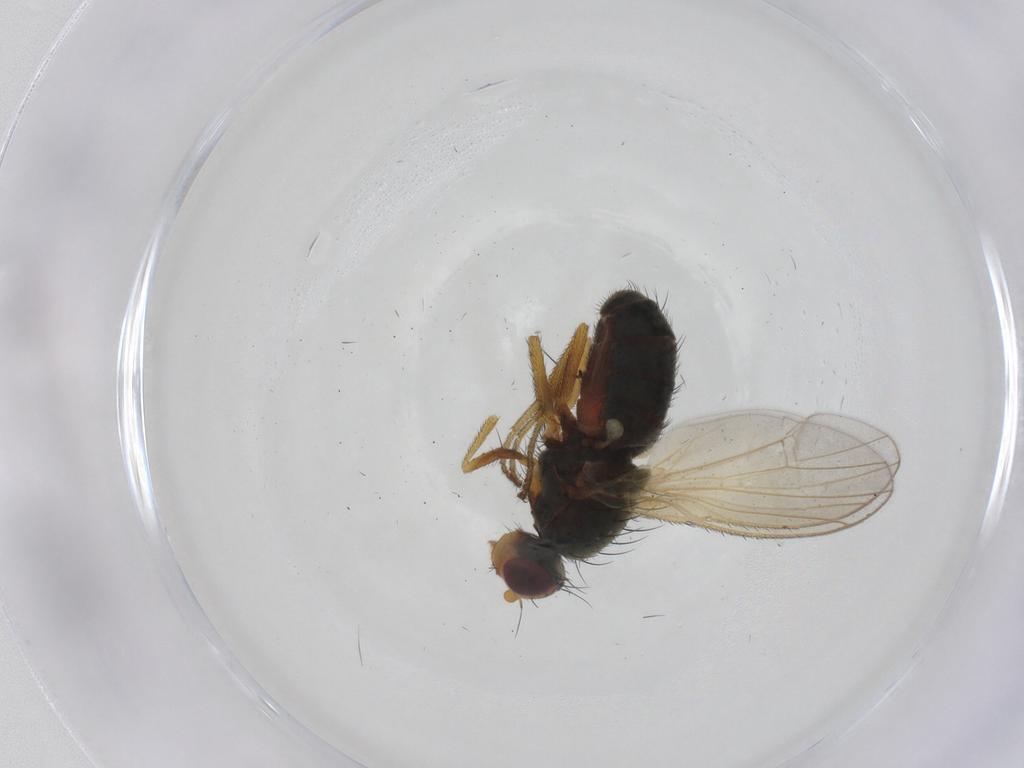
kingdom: Animalia
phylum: Arthropoda
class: Insecta
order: Diptera
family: Heleomyzidae
